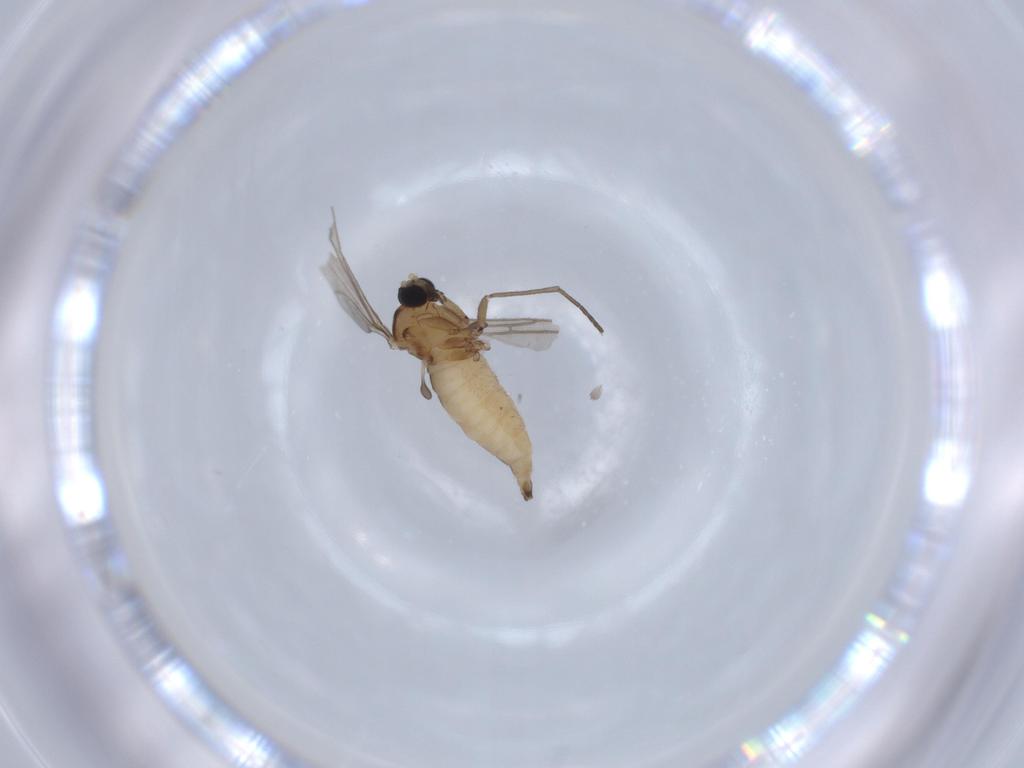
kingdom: Animalia
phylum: Arthropoda
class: Insecta
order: Diptera
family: Sciaridae
